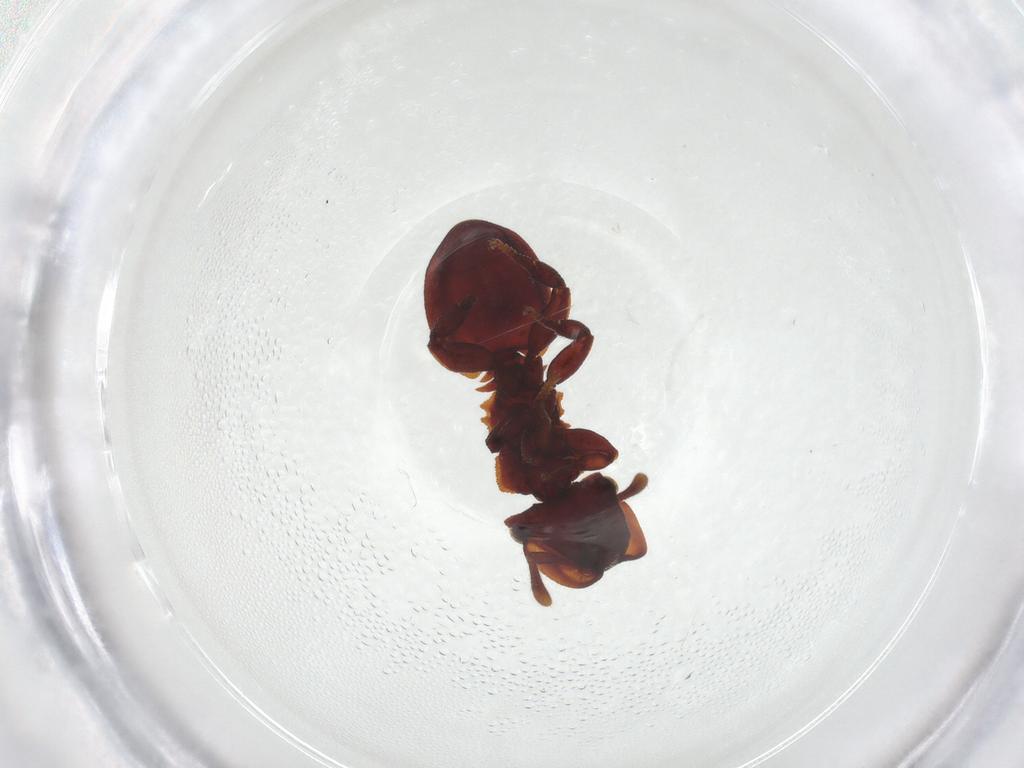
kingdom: Animalia
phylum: Arthropoda
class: Insecta
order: Hymenoptera
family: Formicidae
